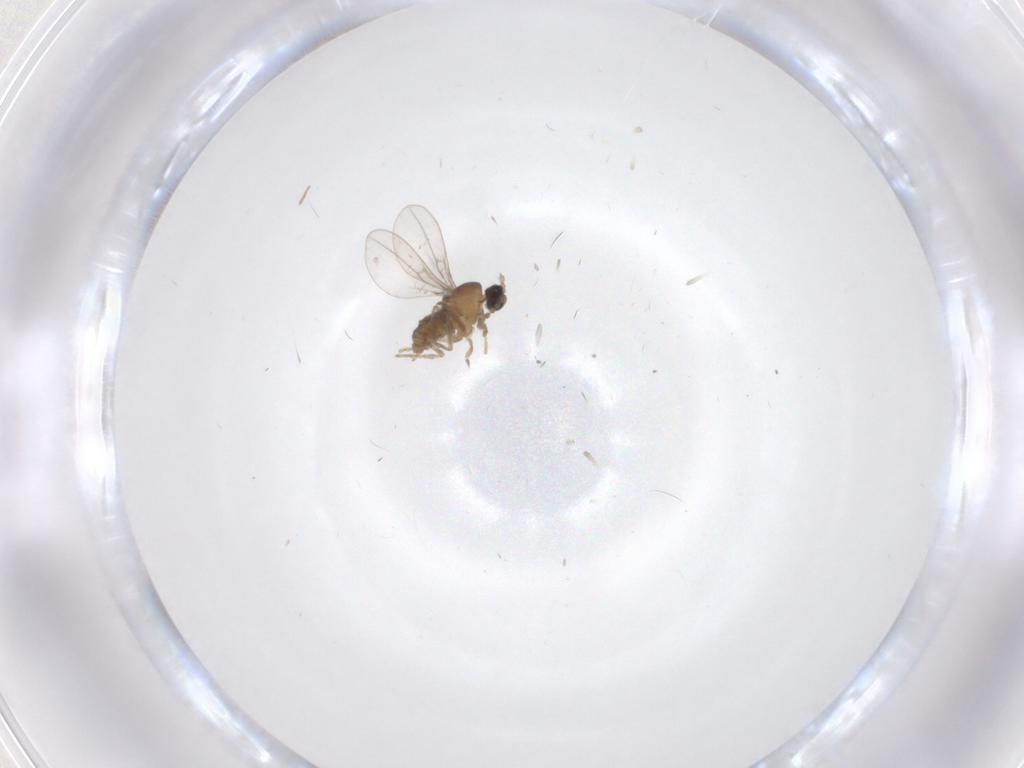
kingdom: Animalia
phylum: Arthropoda
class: Insecta
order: Diptera
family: Cecidomyiidae
